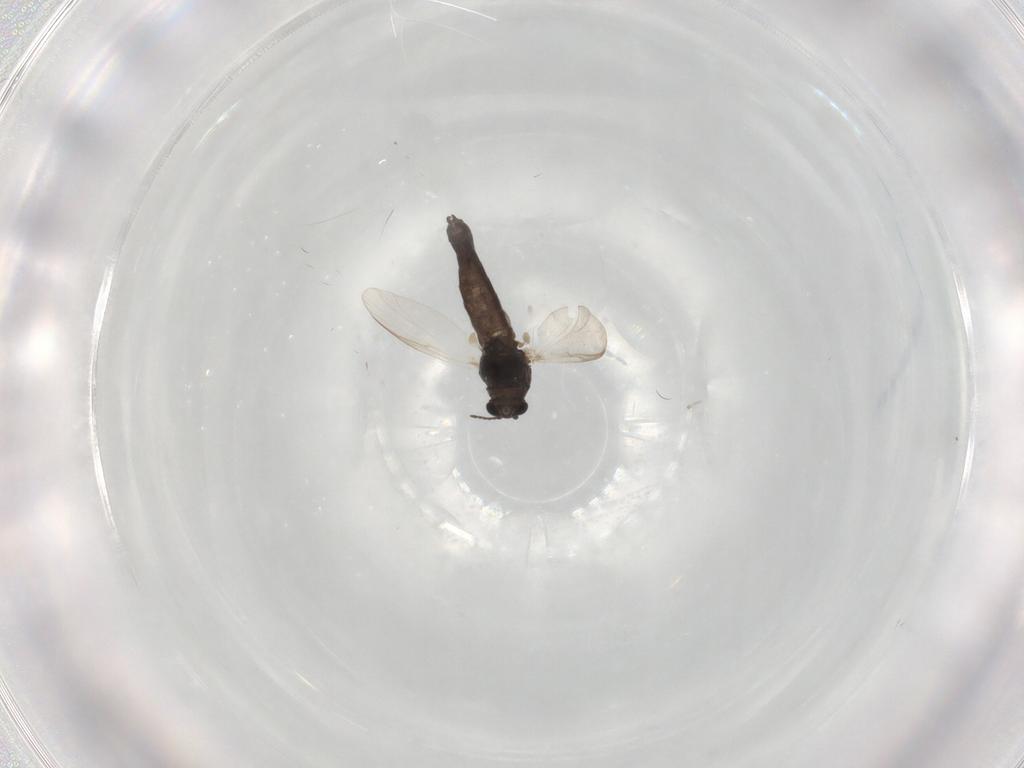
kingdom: Animalia
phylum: Arthropoda
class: Insecta
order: Diptera
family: Chironomidae
